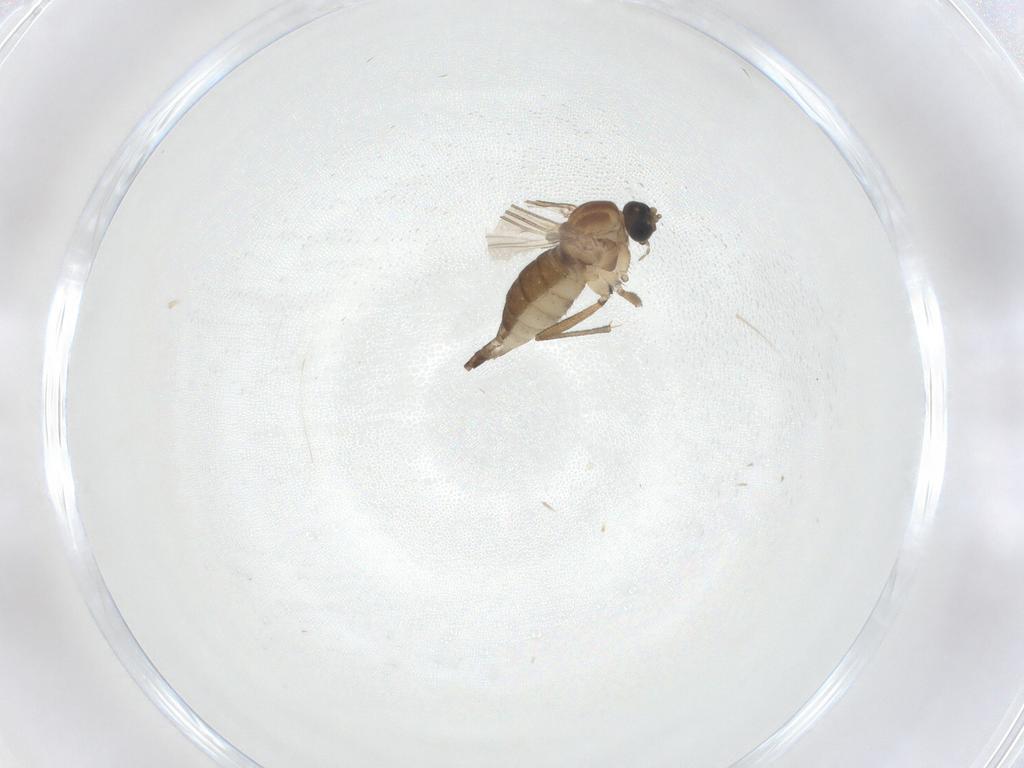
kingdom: Animalia
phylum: Arthropoda
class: Insecta
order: Diptera
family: Sciaridae
